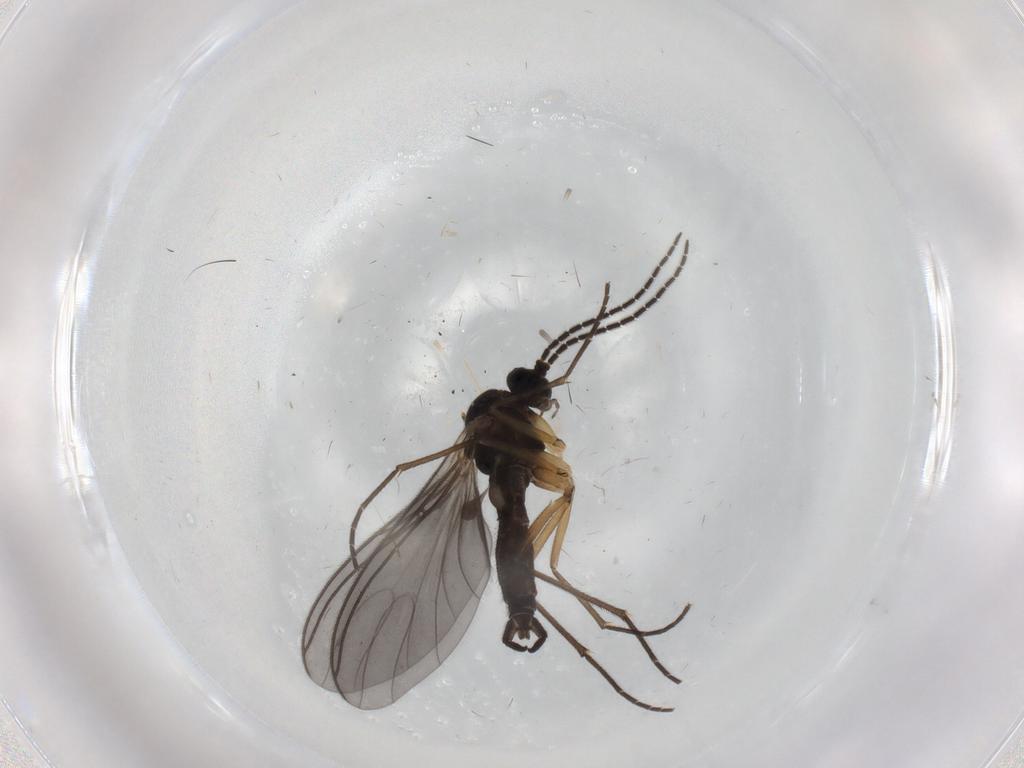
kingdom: Animalia
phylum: Arthropoda
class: Insecta
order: Diptera
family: Sciaridae
